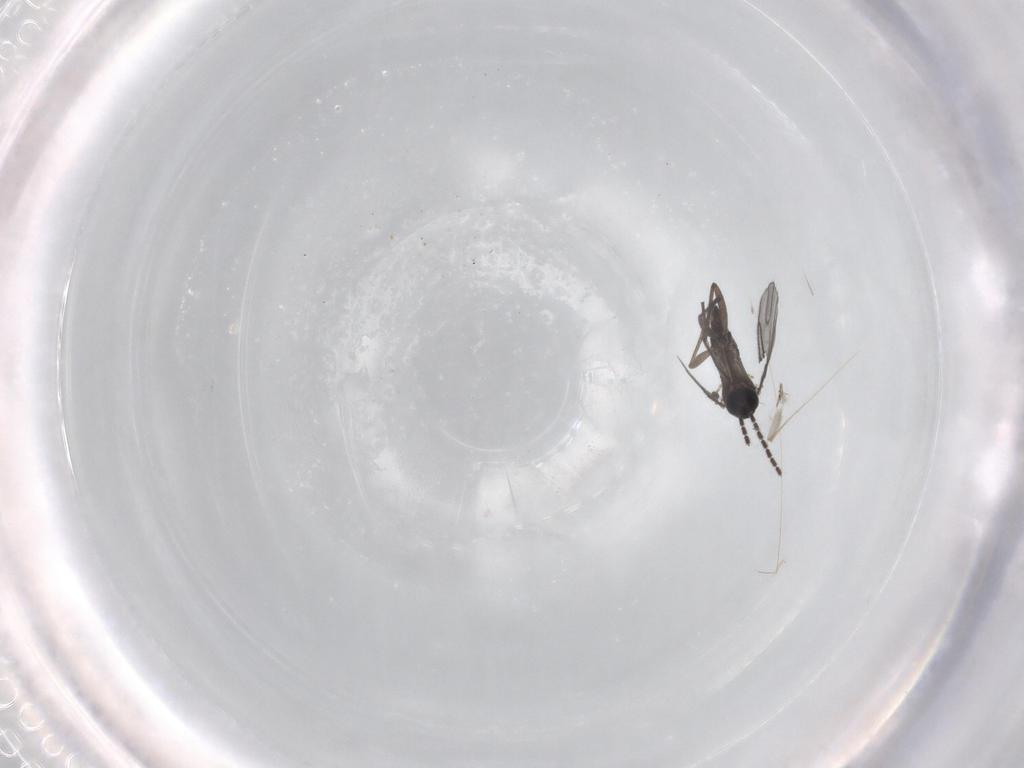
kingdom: Animalia
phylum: Arthropoda
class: Insecta
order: Diptera
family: Sciaridae
